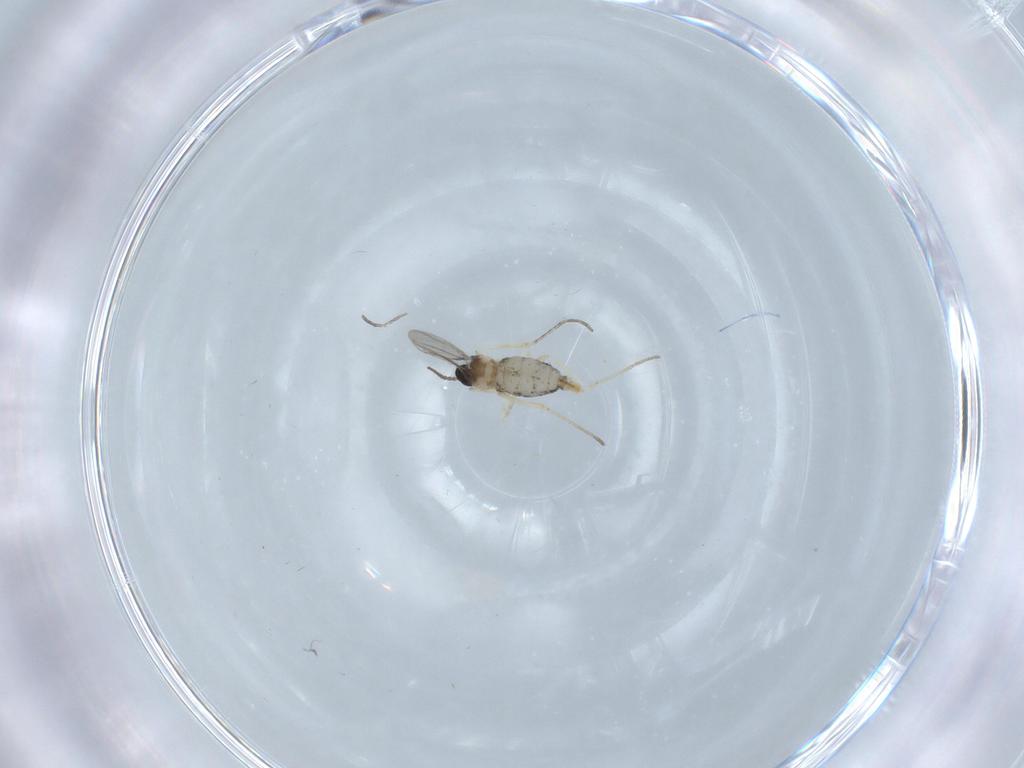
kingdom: Animalia
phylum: Arthropoda
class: Insecta
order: Diptera
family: Cecidomyiidae
